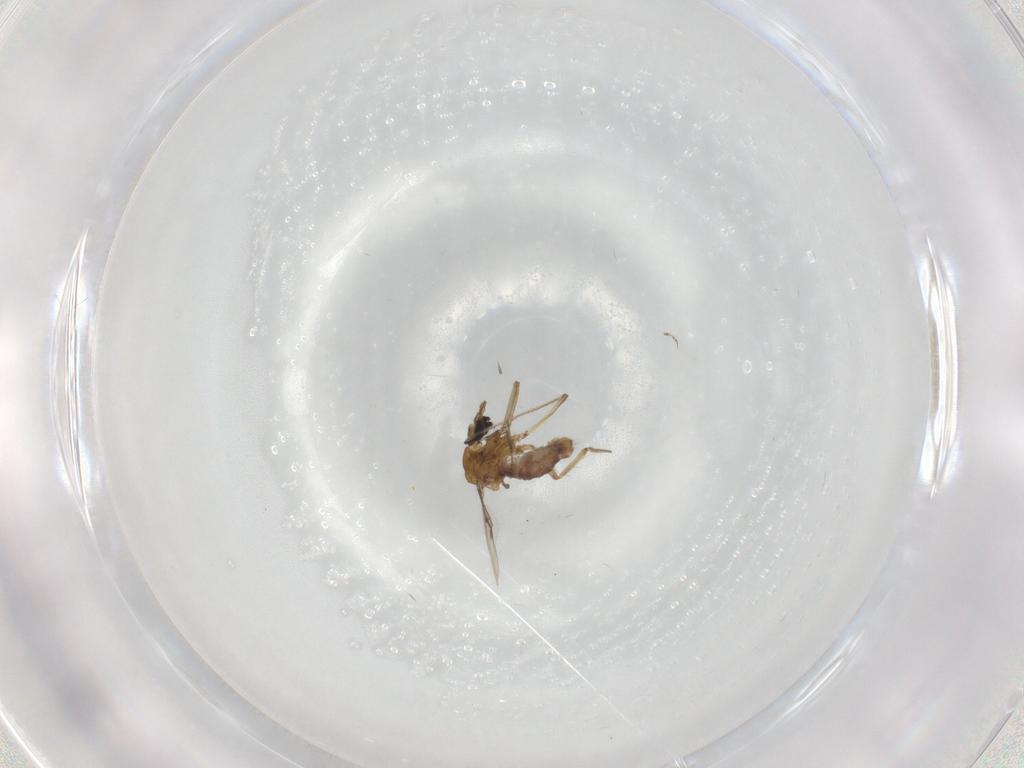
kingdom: Animalia
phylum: Arthropoda
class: Insecta
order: Diptera
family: Ceratopogonidae
